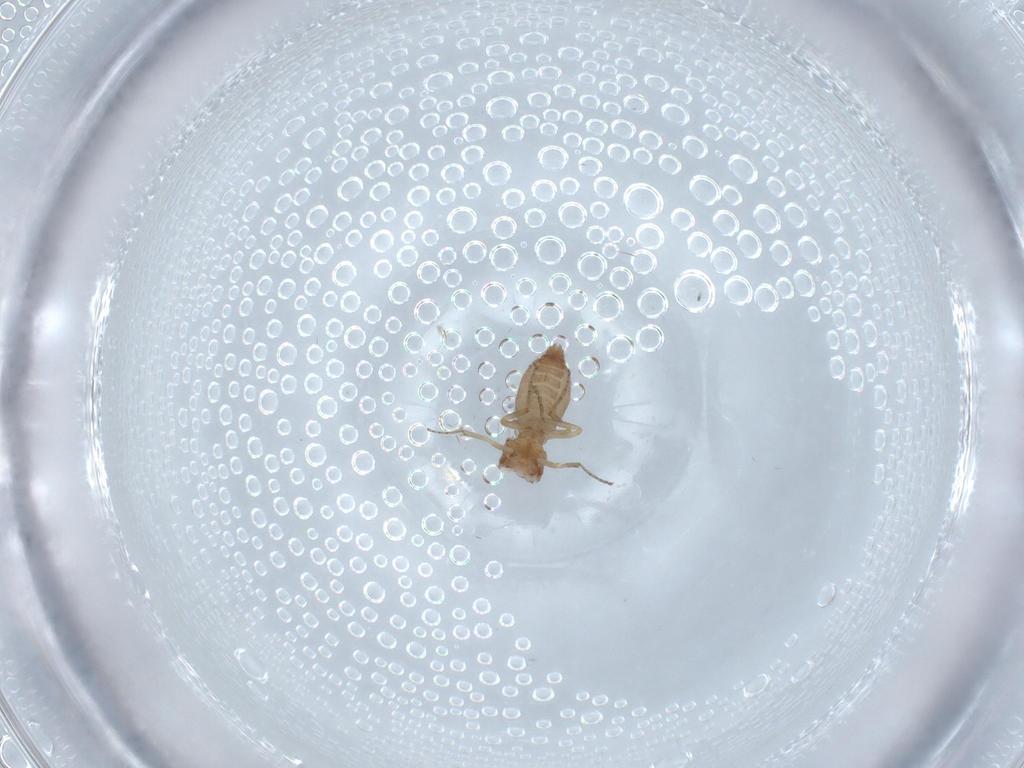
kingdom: Animalia
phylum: Arthropoda
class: Insecta
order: Diptera
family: Ceratopogonidae
